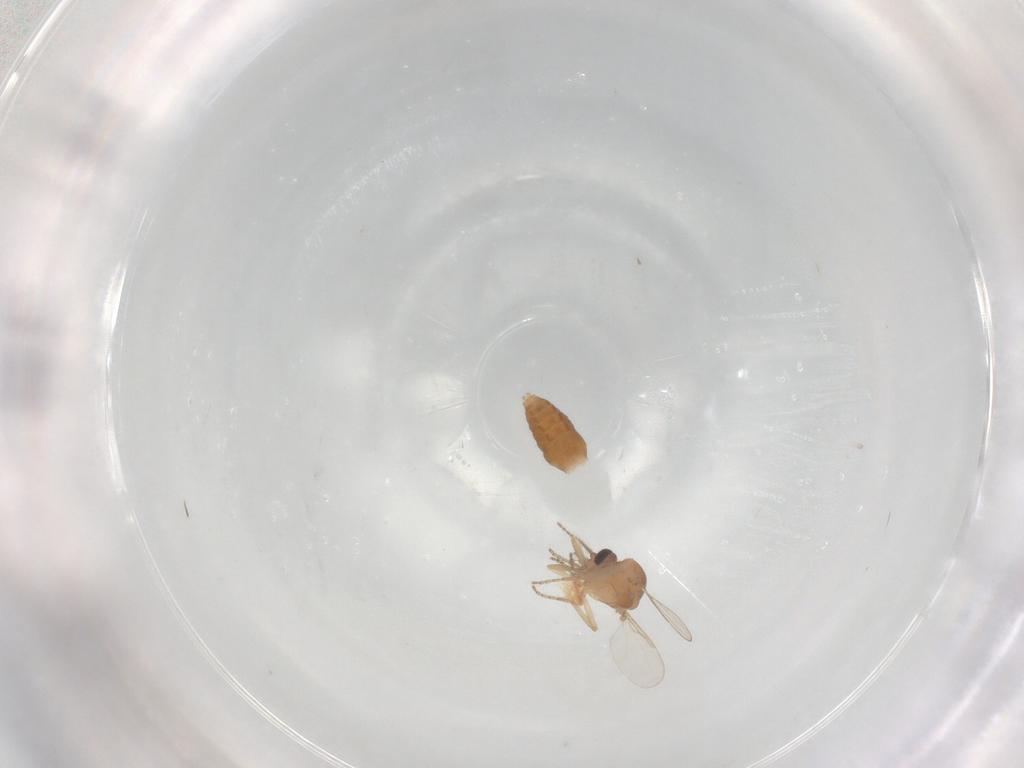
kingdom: Animalia
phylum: Arthropoda
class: Insecta
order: Diptera
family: Ceratopogonidae
